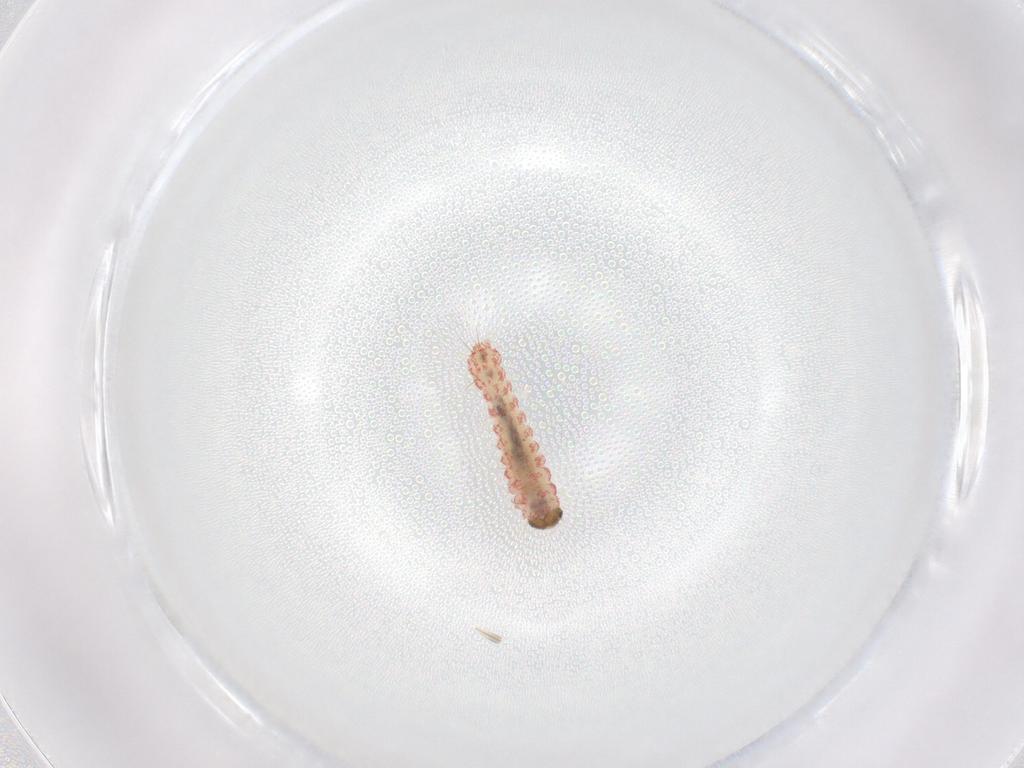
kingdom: Animalia
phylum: Arthropoda
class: Insecta
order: Lepidoptera
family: Erebidae
